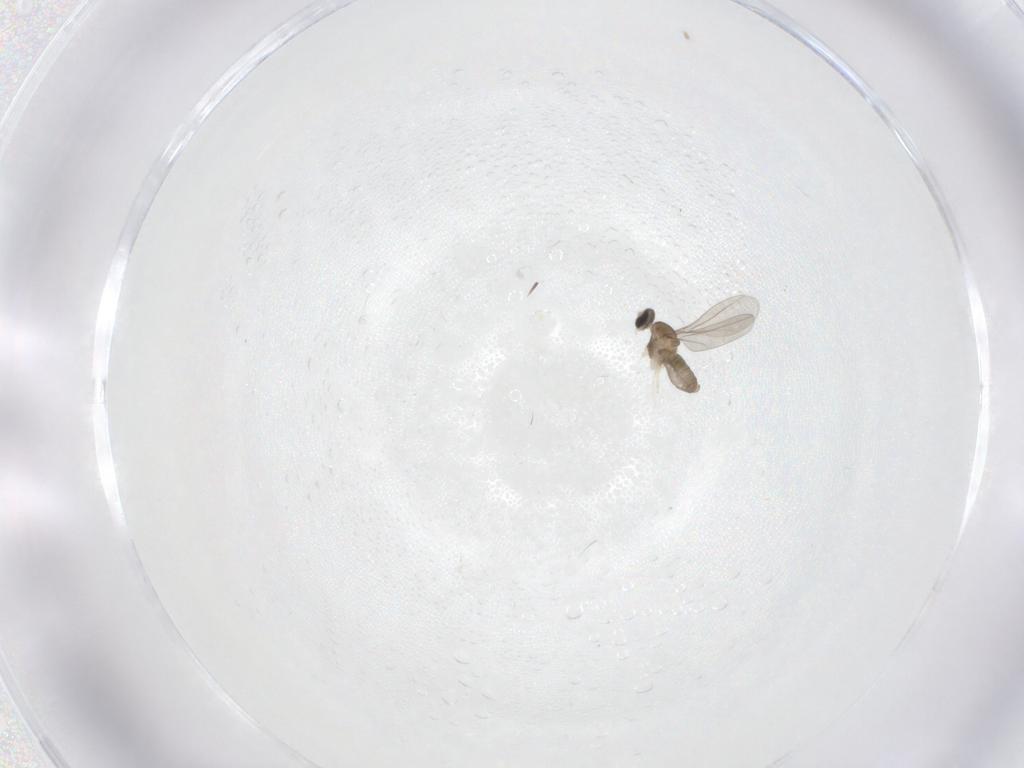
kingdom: Animalia
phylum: Arthropoda
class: Insecta
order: Diptera
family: Cecidomyiidae
